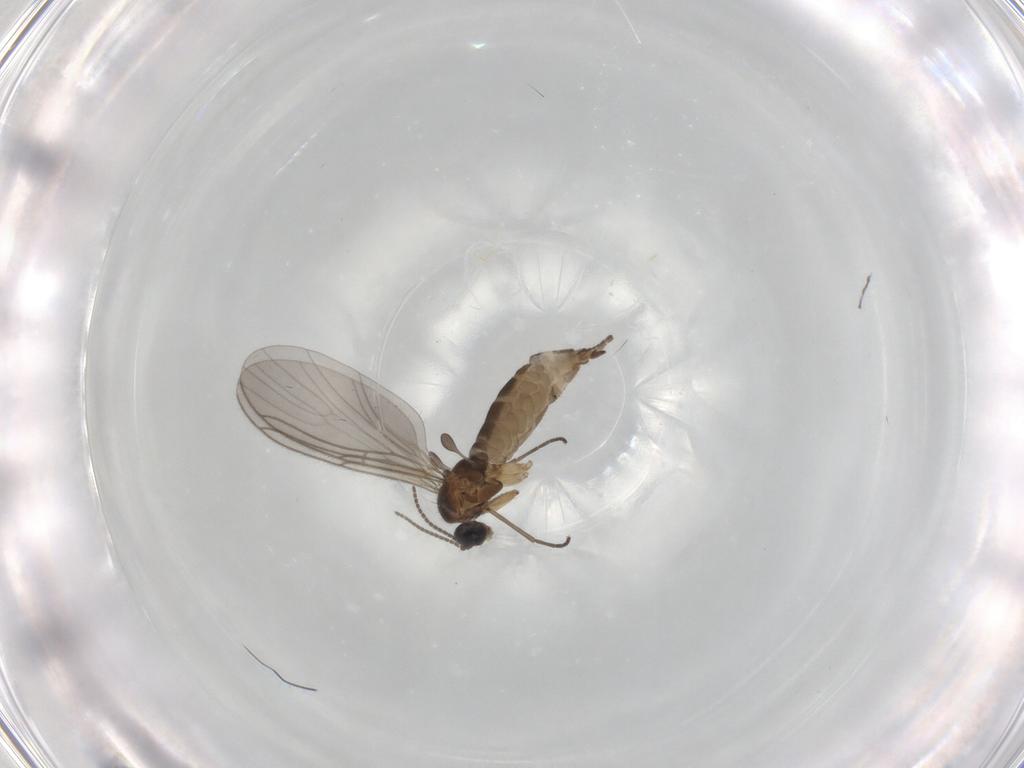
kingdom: Animalia
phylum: Arthropoda
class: Insecta
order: Diptera
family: Sciaridae
